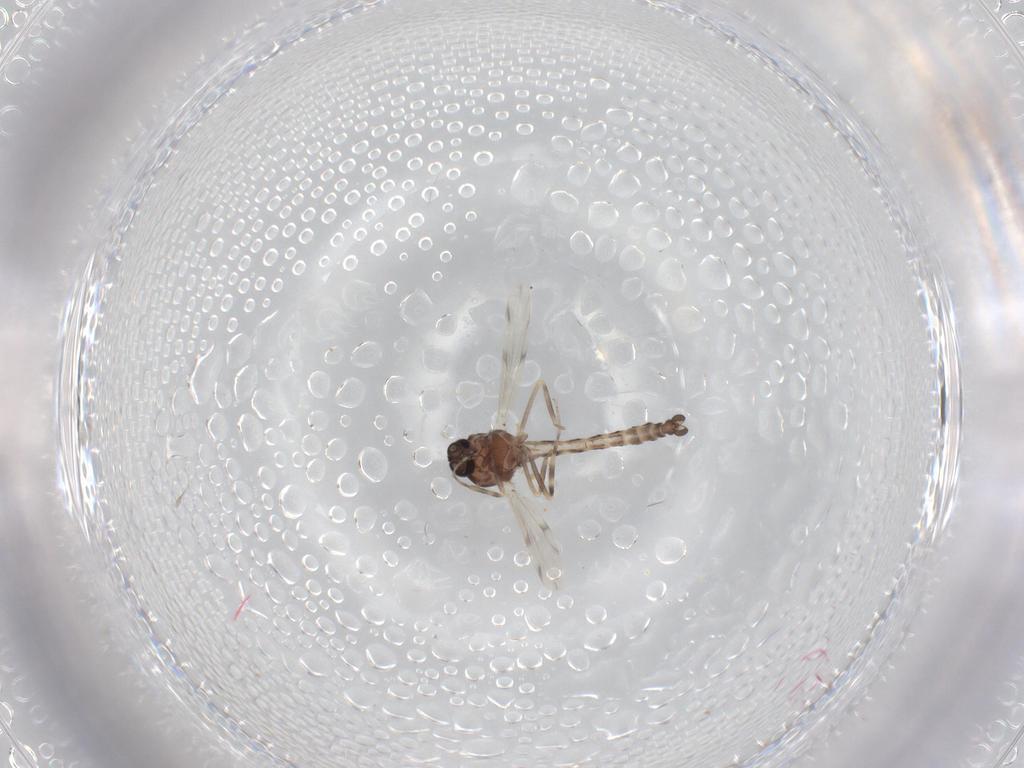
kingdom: Animalia
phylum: Arthropoda
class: Insecta
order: Diptera
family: Ceratopogonidae
